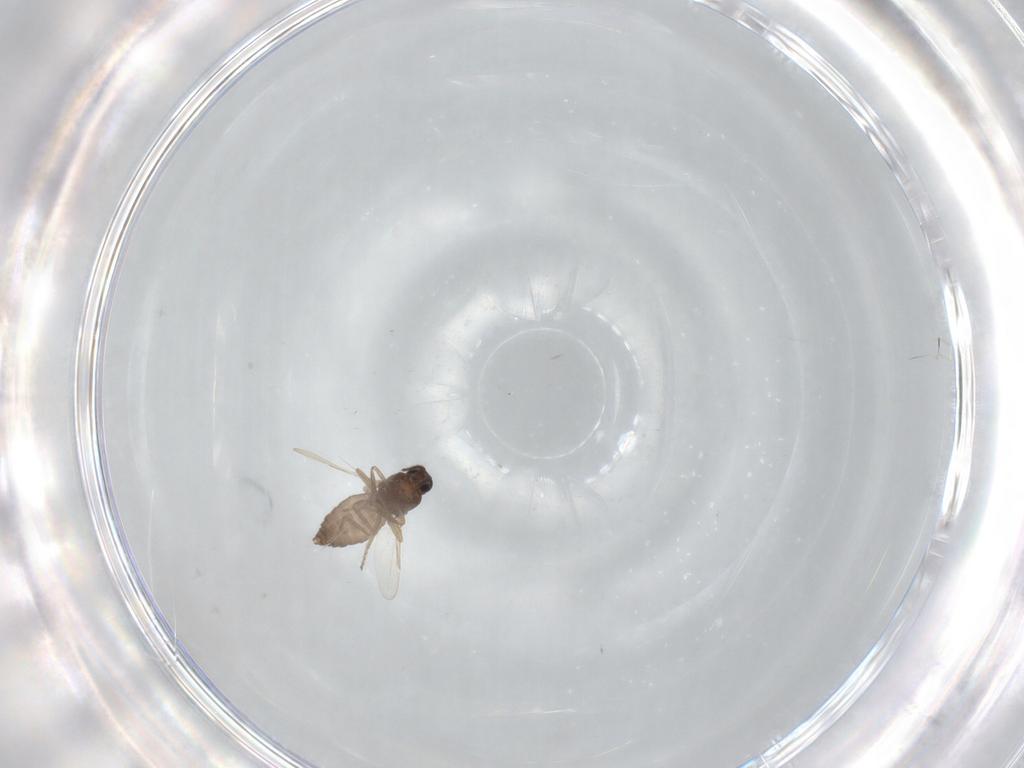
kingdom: Animalia
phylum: Arthropoda
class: Insecta
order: Diptera
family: Ceratopogonidae
